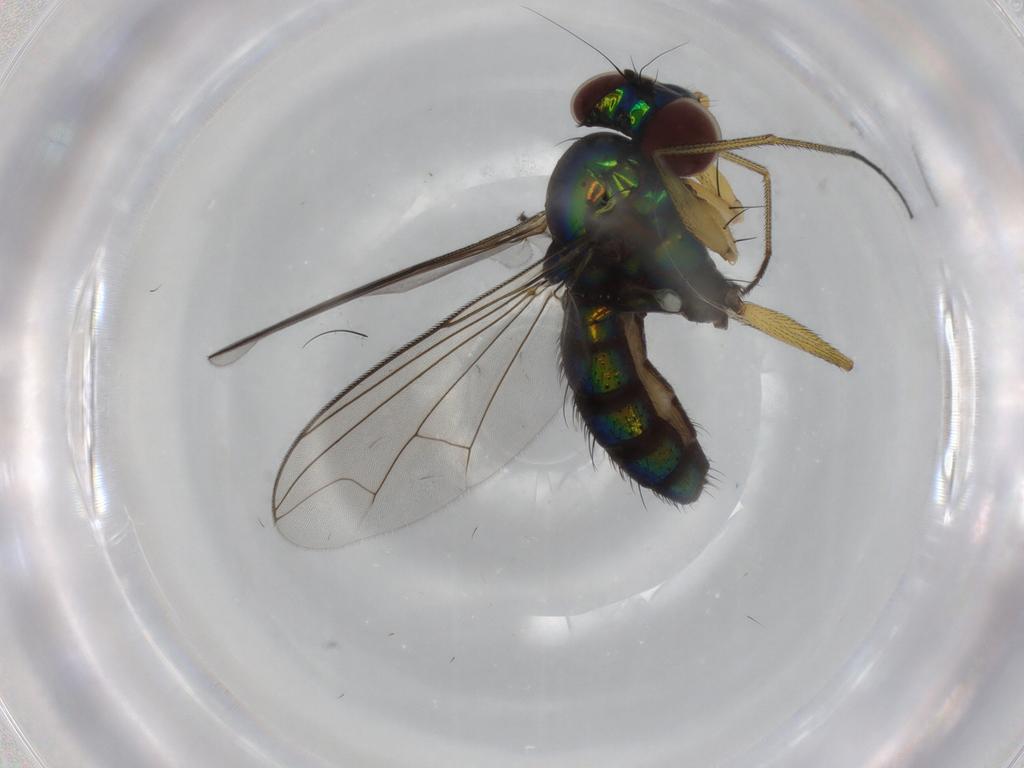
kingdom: Animalia
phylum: Arthropoda
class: Insecta
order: Diptera
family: Dolichopodidae
